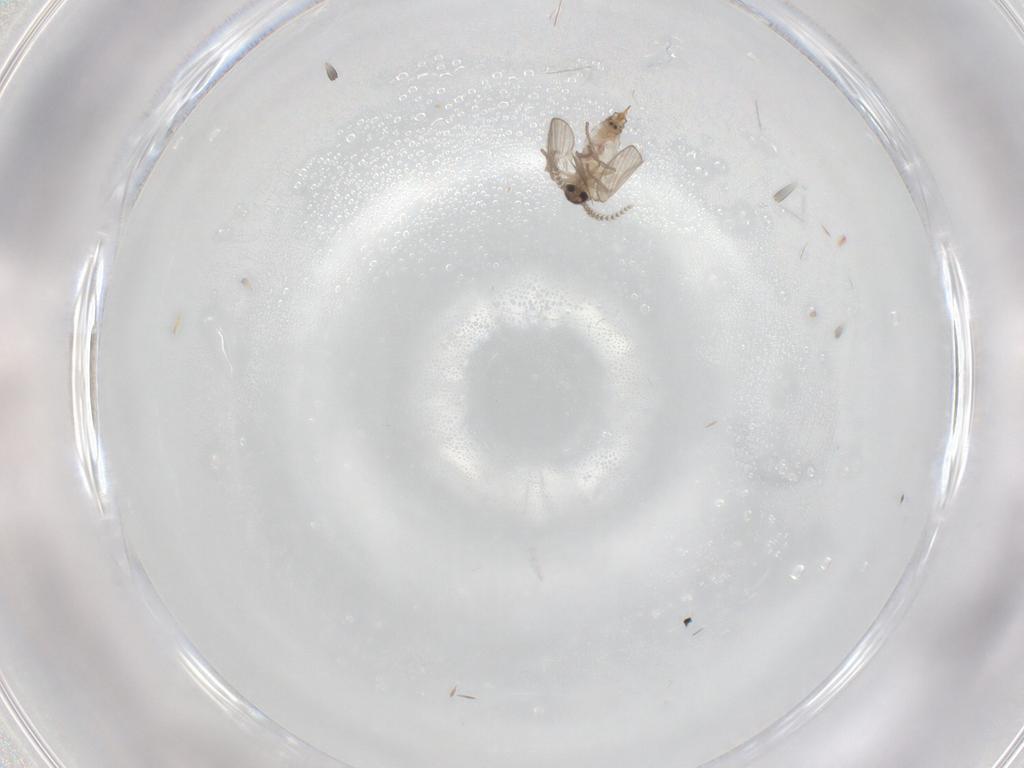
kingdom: Animalia
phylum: Arthropoda
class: Insecta
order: Diptera
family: Psychodidae
